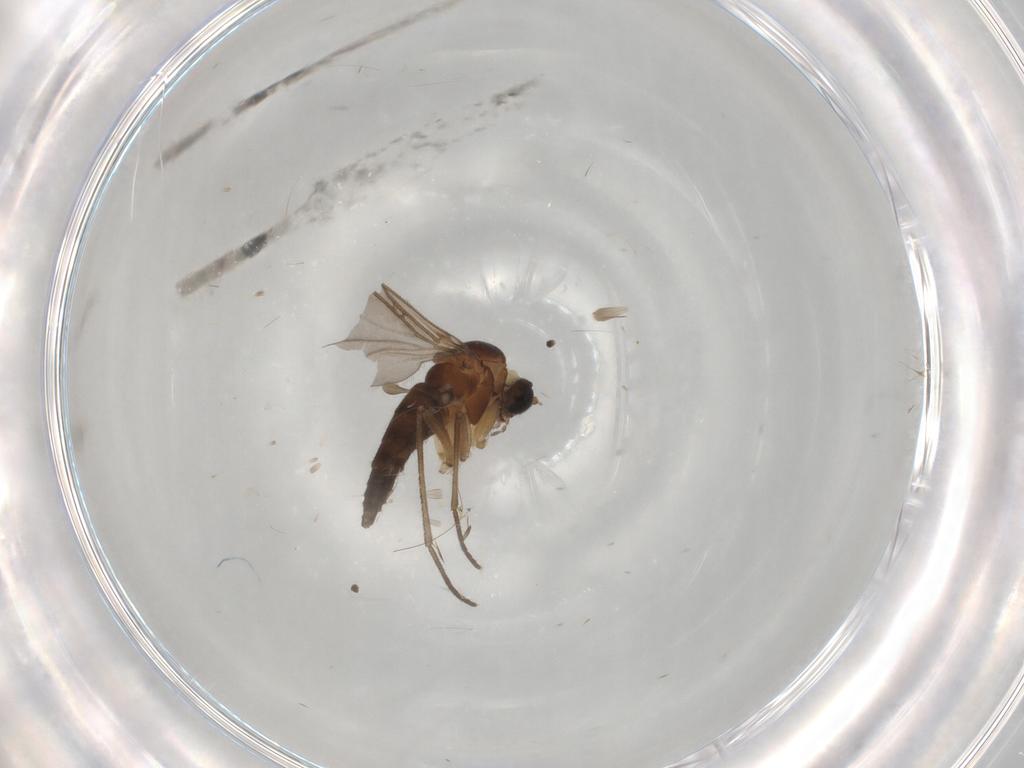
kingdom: Animalia
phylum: Arthropoda
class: Insecta
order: Diptera
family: Sciaridae
